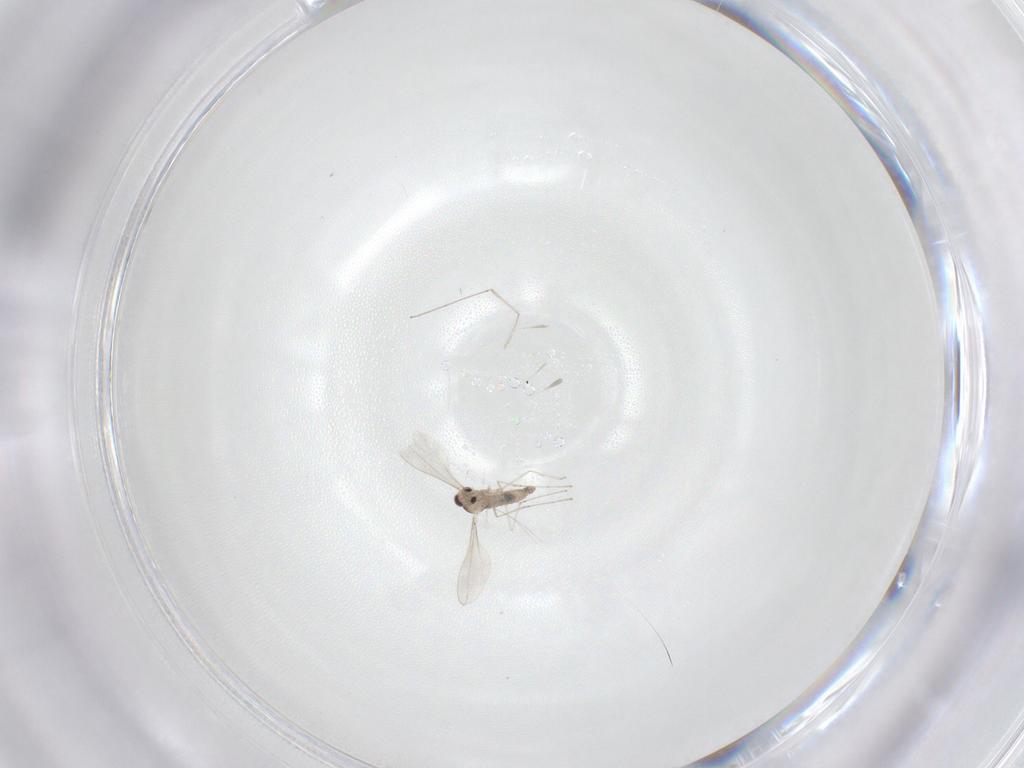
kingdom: Animalia
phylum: Arthropoda
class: Insecta
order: Diptera
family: Cecidomyiidae
